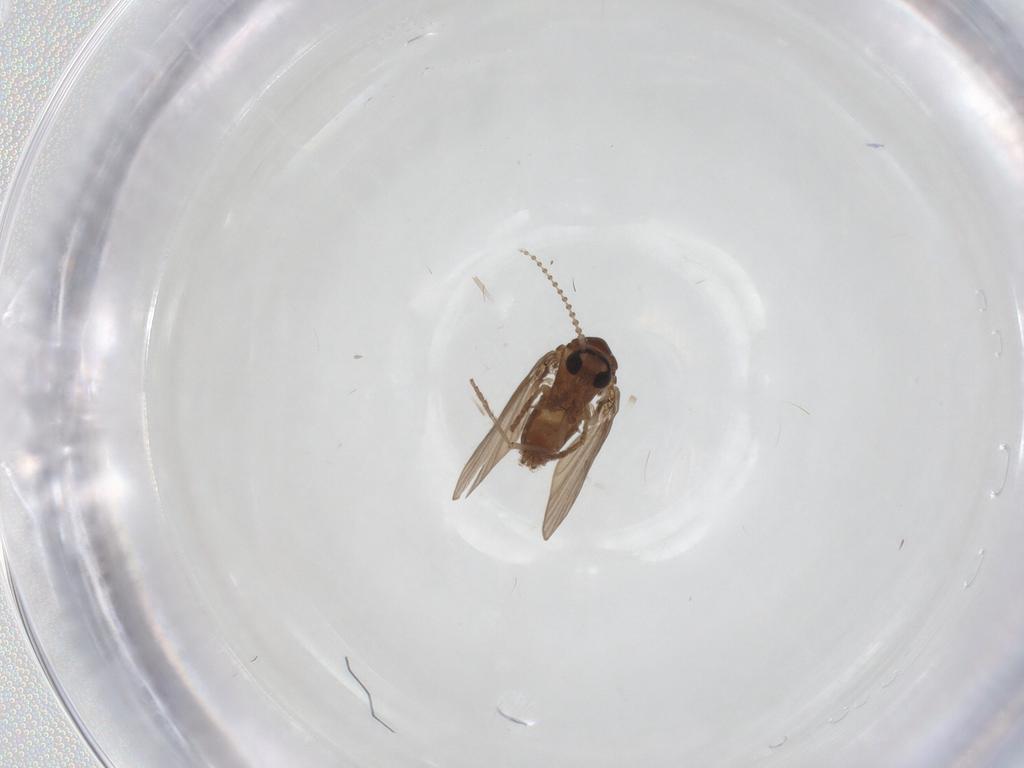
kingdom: Animalia
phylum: Arthropoda
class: Insecta
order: Diptera
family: Psychodidae
